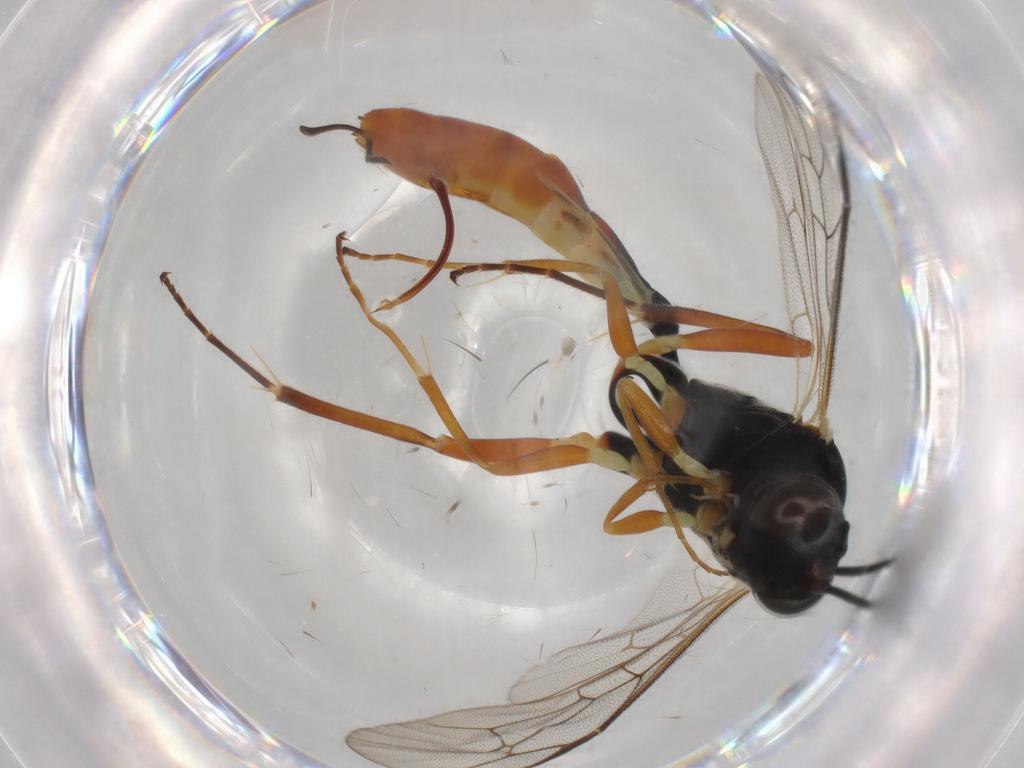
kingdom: Animalia
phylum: Arthropoda
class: Insecta
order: Hymenoptera
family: Ichneumonidae
